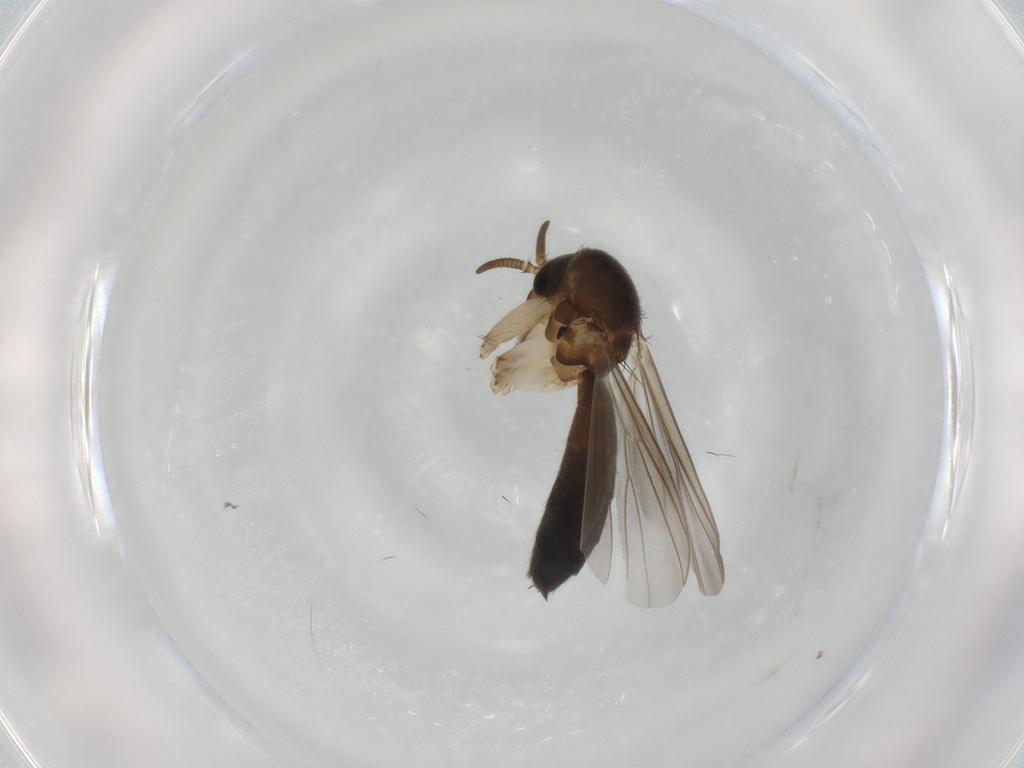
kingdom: Animalia
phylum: Arthropoda
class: Insecta
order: Diptera
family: Mycetophilidae
